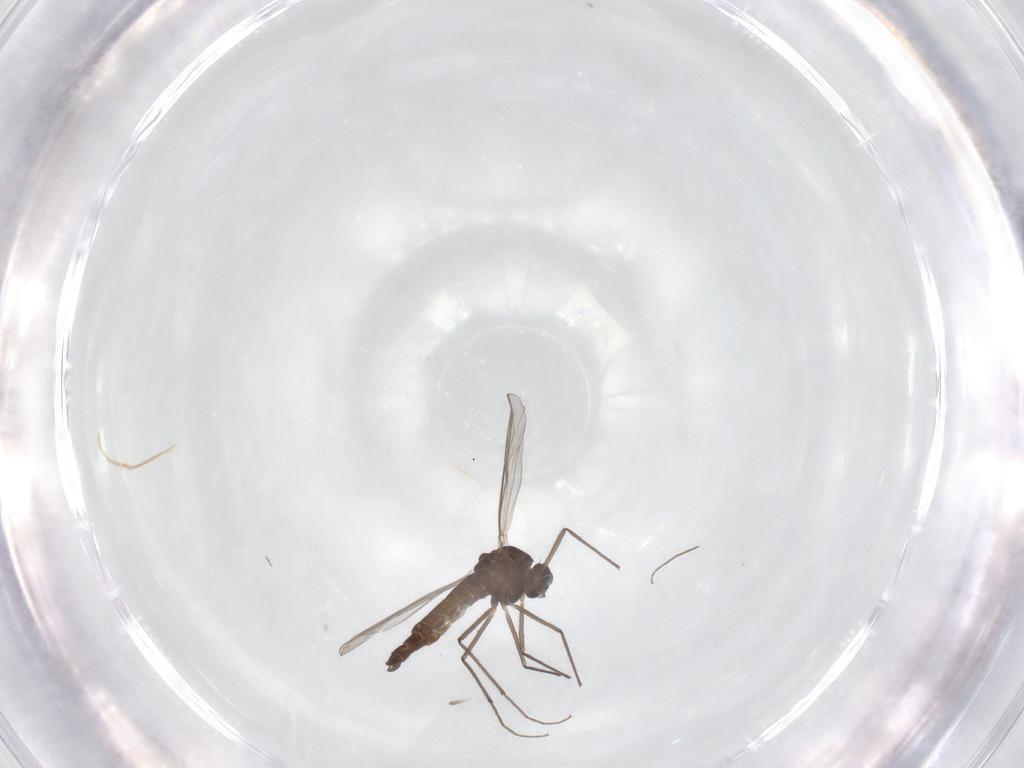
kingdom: Animalia
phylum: Arthropoda
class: Insecta
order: Diptera
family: Chironomidae
